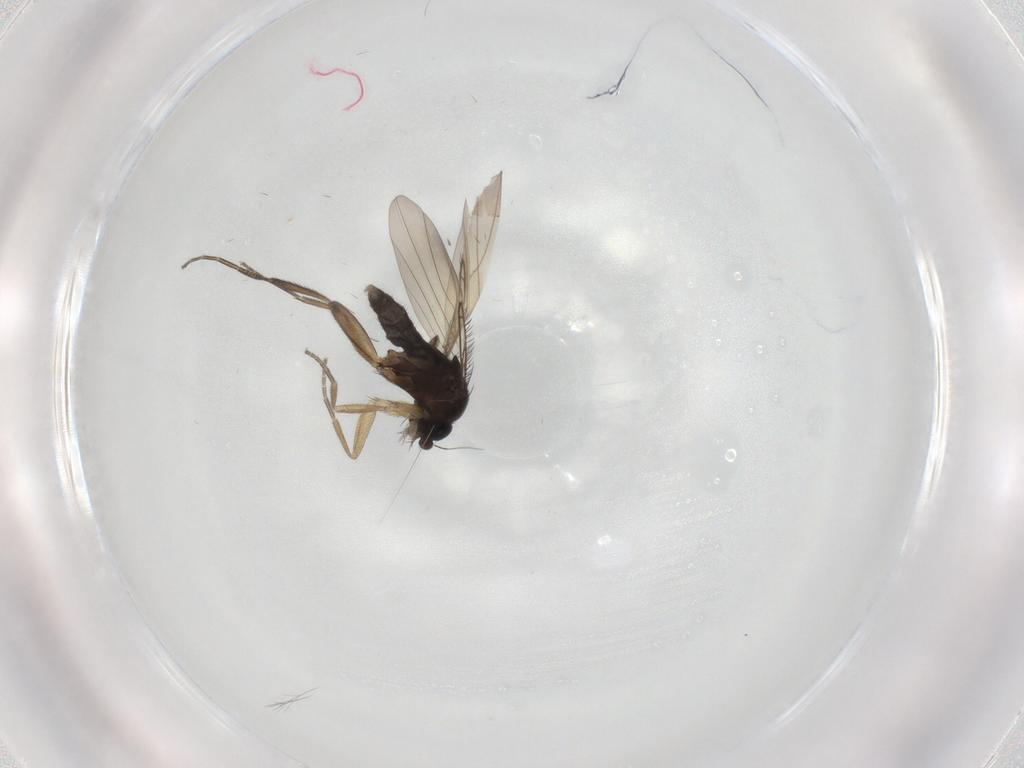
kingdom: Animalia
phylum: Arthropoda
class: Insecta
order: Diptera
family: Phoridae
